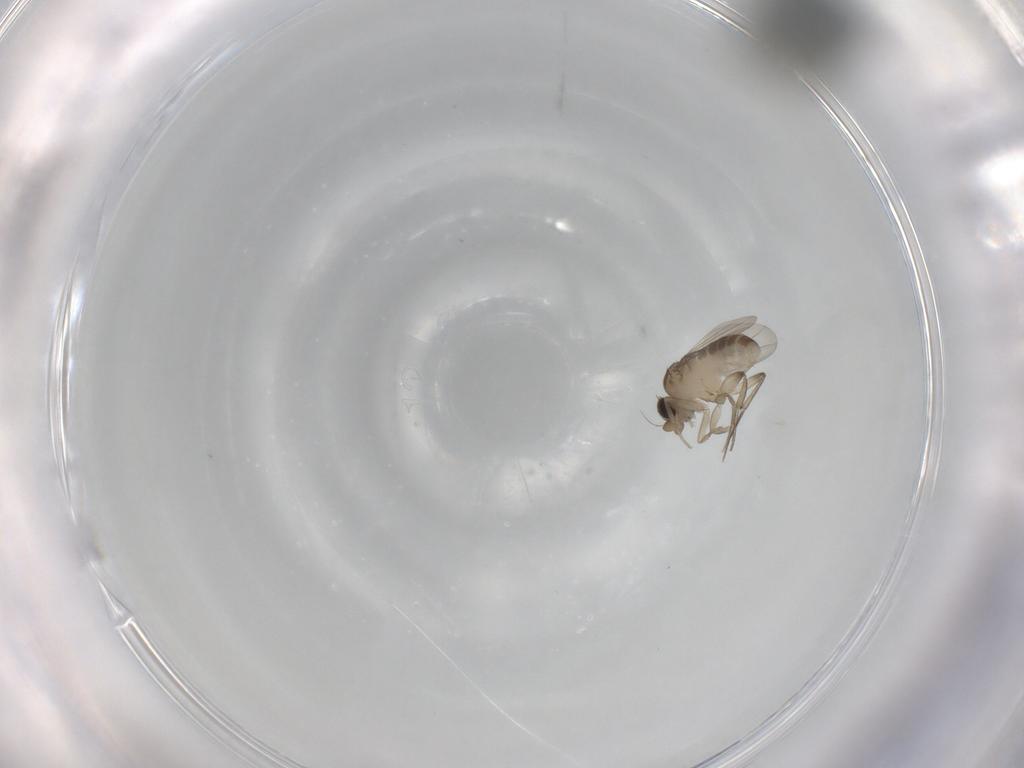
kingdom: Animalia
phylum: Arthropoda
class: Insecta
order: Diptera
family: Phoridae
